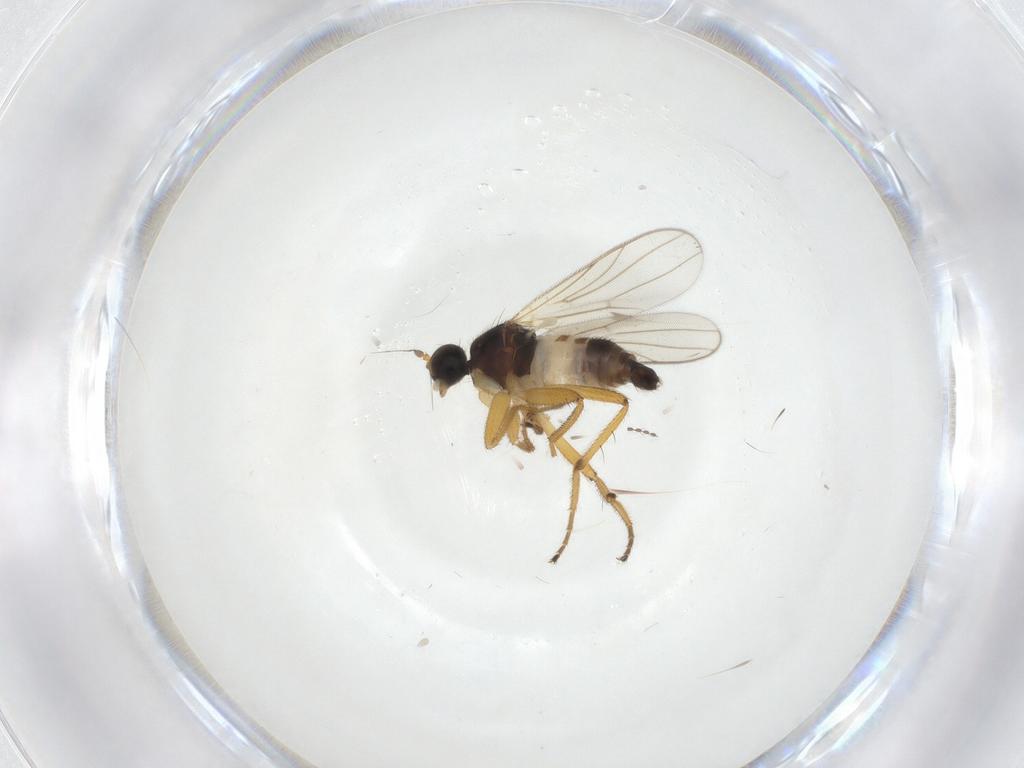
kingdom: Animalia
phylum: Arthropoda
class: Insecta
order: Diptera
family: Hybotidae
